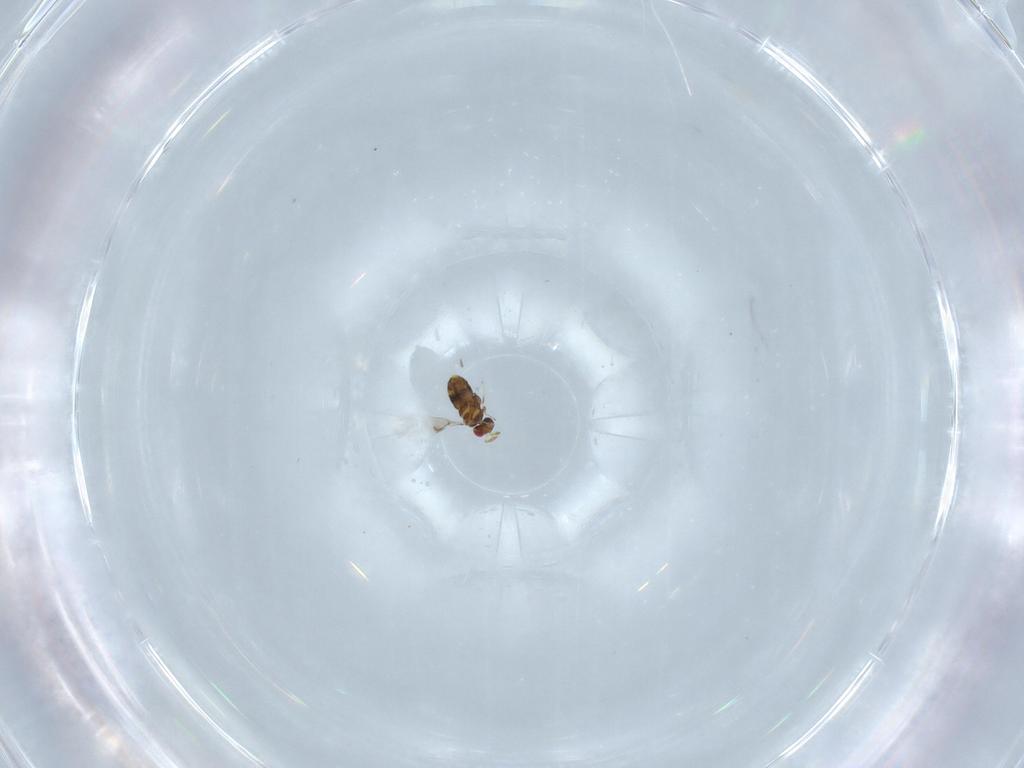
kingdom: Animalia
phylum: Arthropoda
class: Insecta
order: Hymenoptera
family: Trichogrammatidae
